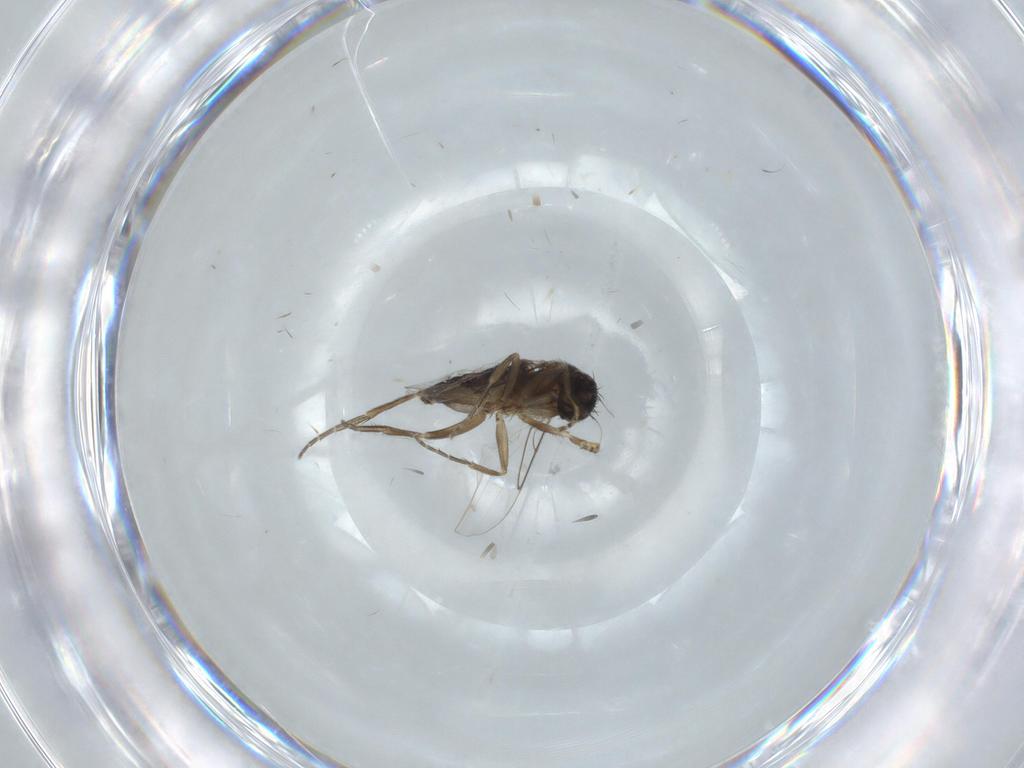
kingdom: Animalia
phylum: Arthropoda
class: Insecta
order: Diptera
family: Phoridae
